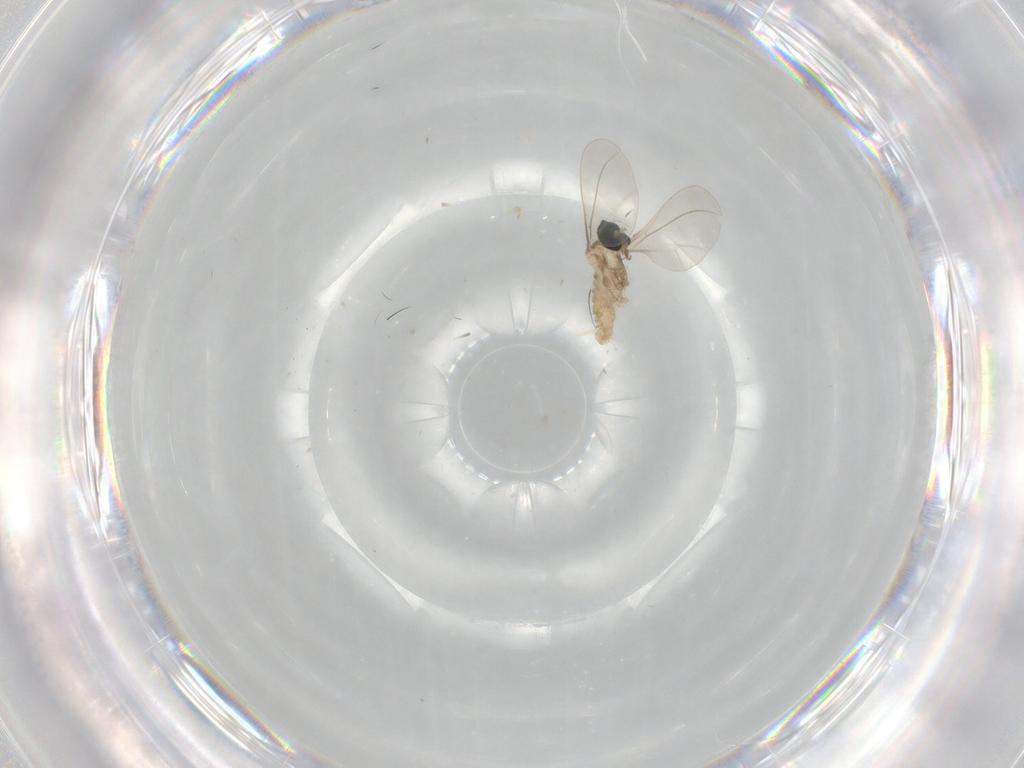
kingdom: Animalia
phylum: Arthropoda
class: Insecta
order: Diptera
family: Cecidomyiidae
